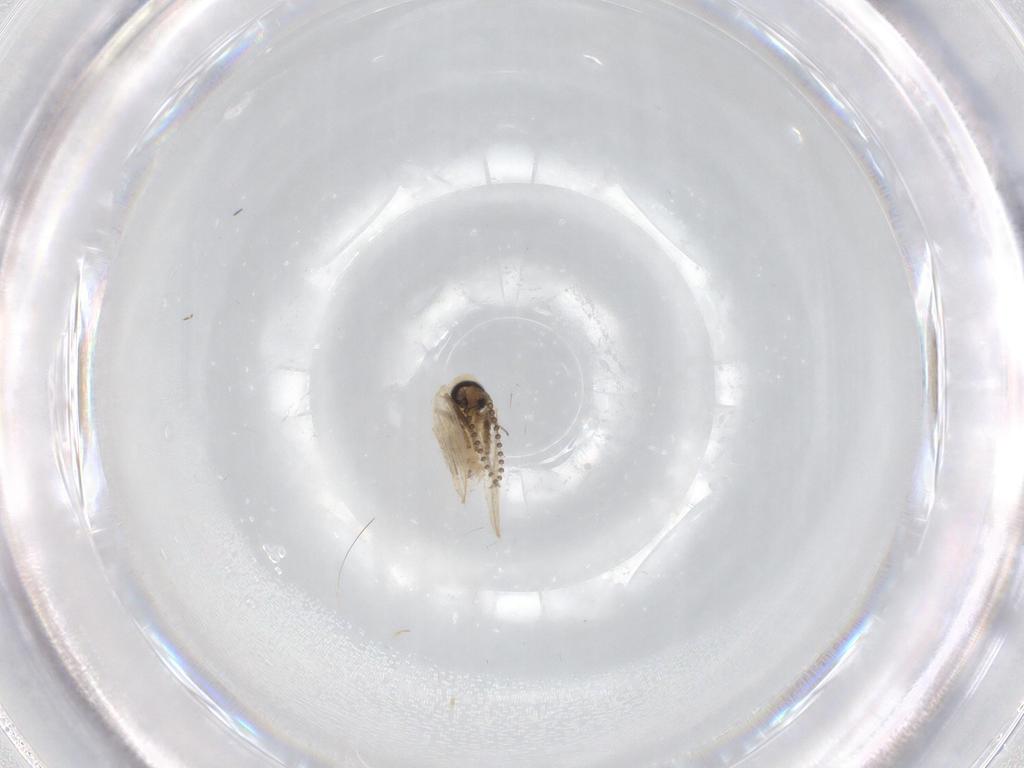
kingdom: Animalia
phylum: Arthropoda
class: Insecta
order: Diptera
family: Psychodidae
